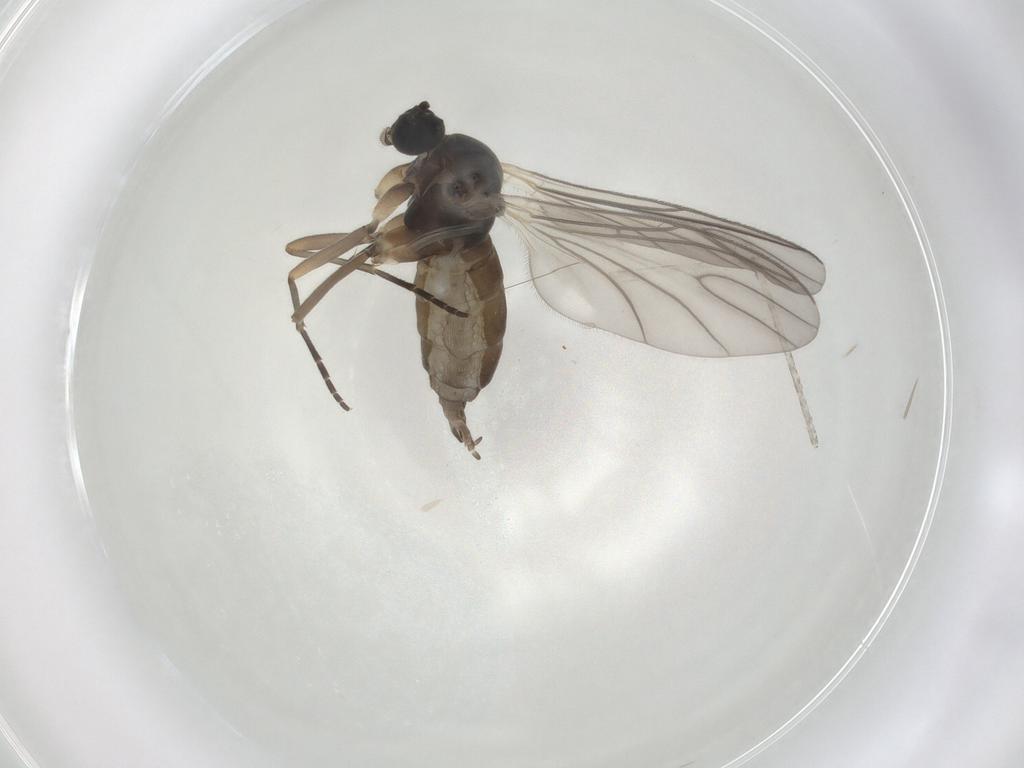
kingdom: Animalia
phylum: Arthropoda
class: Insecta
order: Diptera
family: Sciaridae
